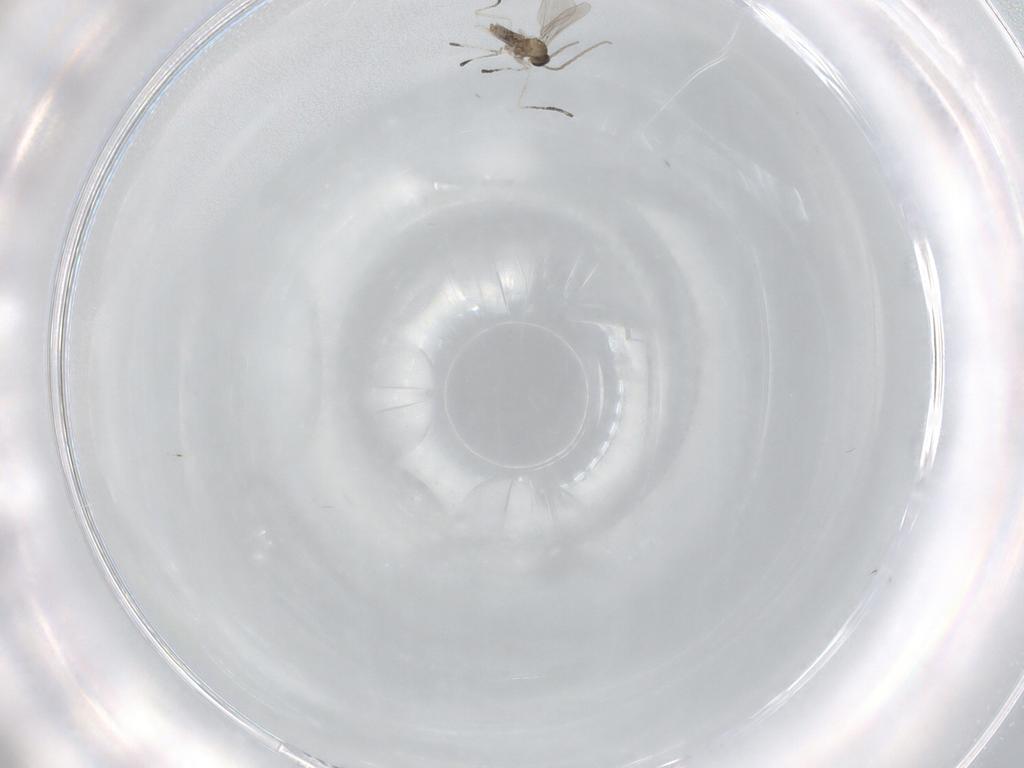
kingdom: Animalia
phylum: Arthropoda
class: Insecta
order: Diptera
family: Cecidomyiidae
